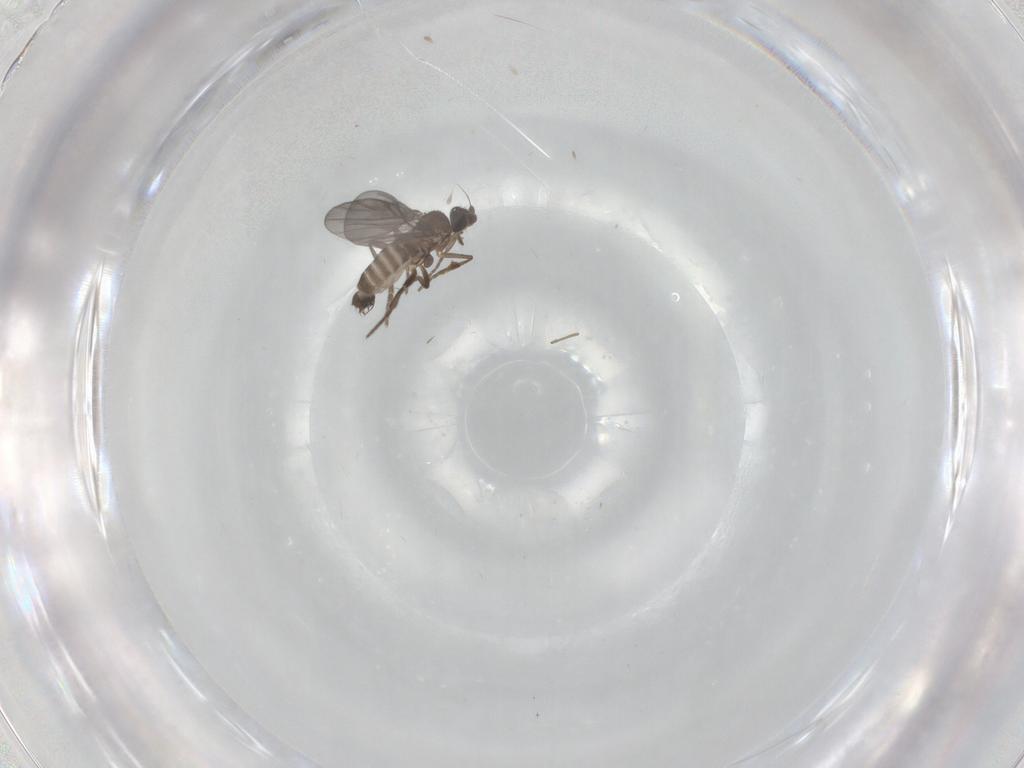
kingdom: Animalia
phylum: Arthropoda
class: Insecta
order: Diptera
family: Phoridae
